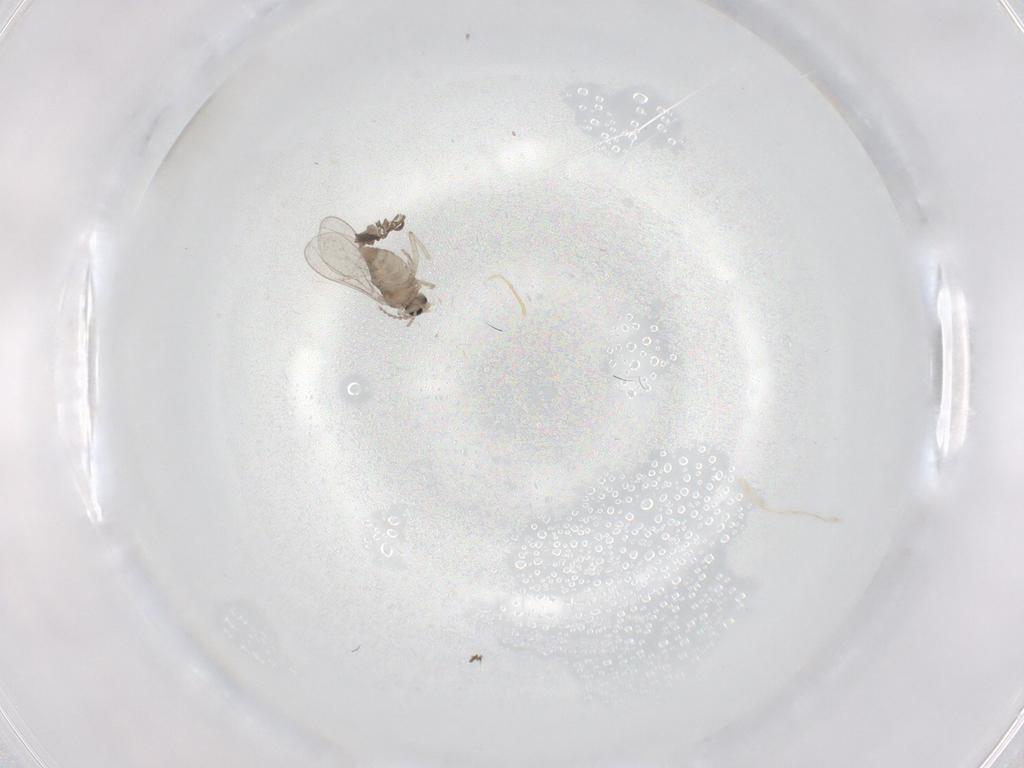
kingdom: Animalia
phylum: Arthropoda
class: Insecta
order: Diptera
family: Cecidomyiidae
